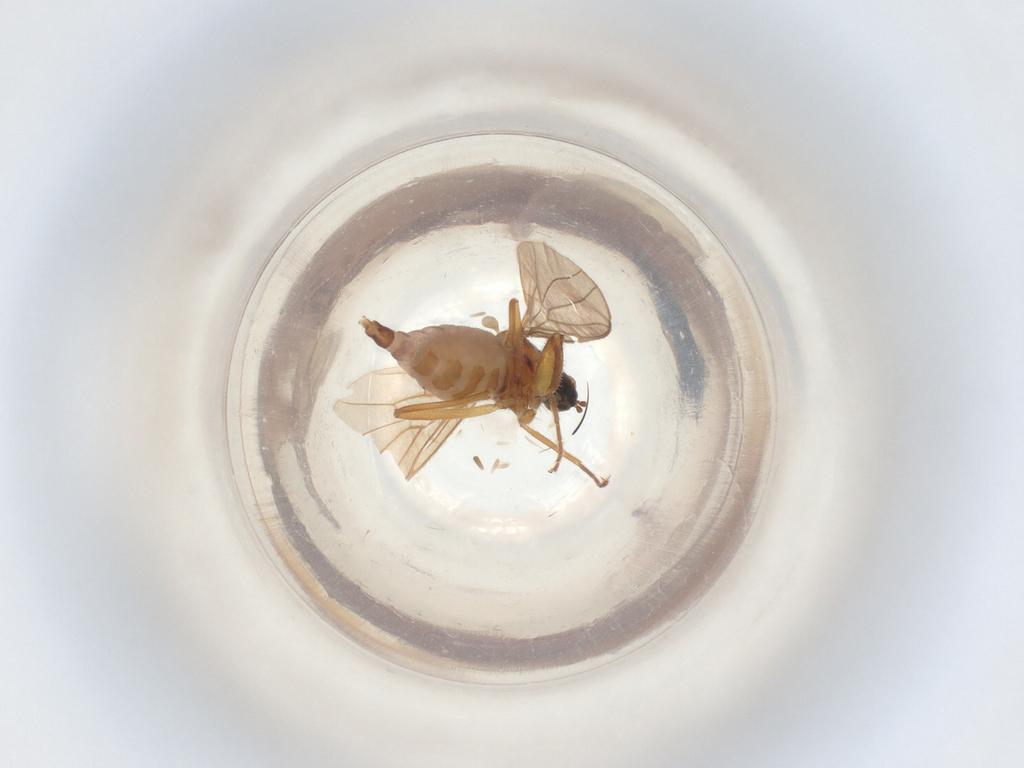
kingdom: Animalia
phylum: Arthropoda
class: Insecta
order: Diptera
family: Hybotidae
